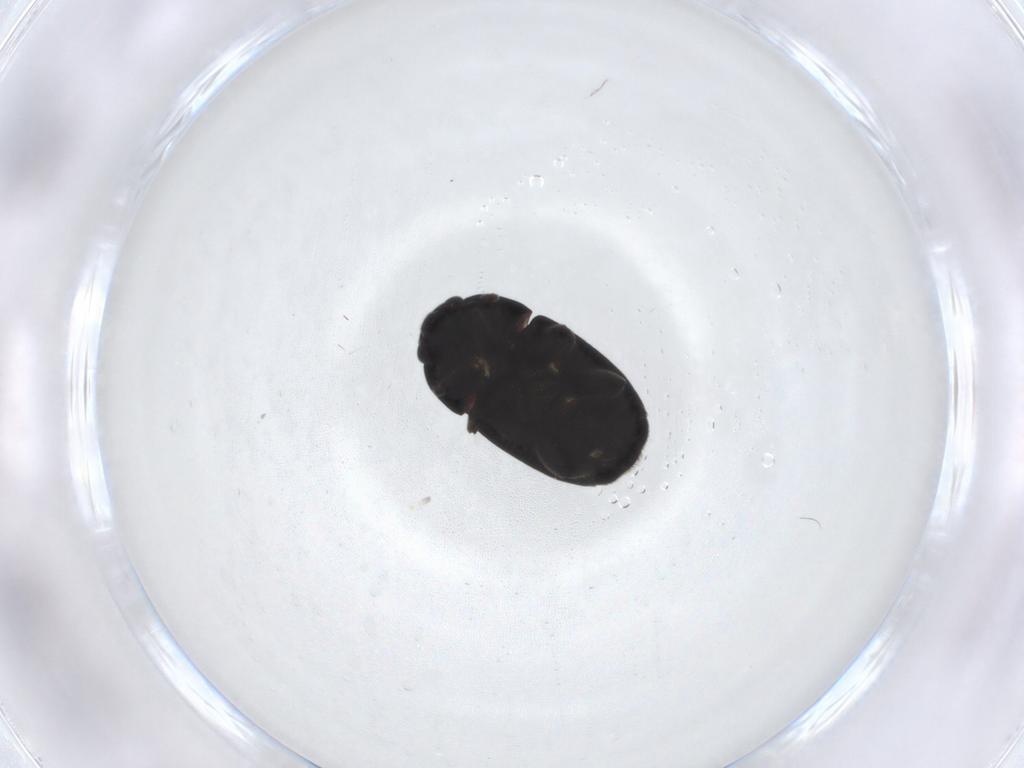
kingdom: Animalia
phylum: Arthropoda
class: Insecta
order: Coleoptera
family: Nitidulidae
